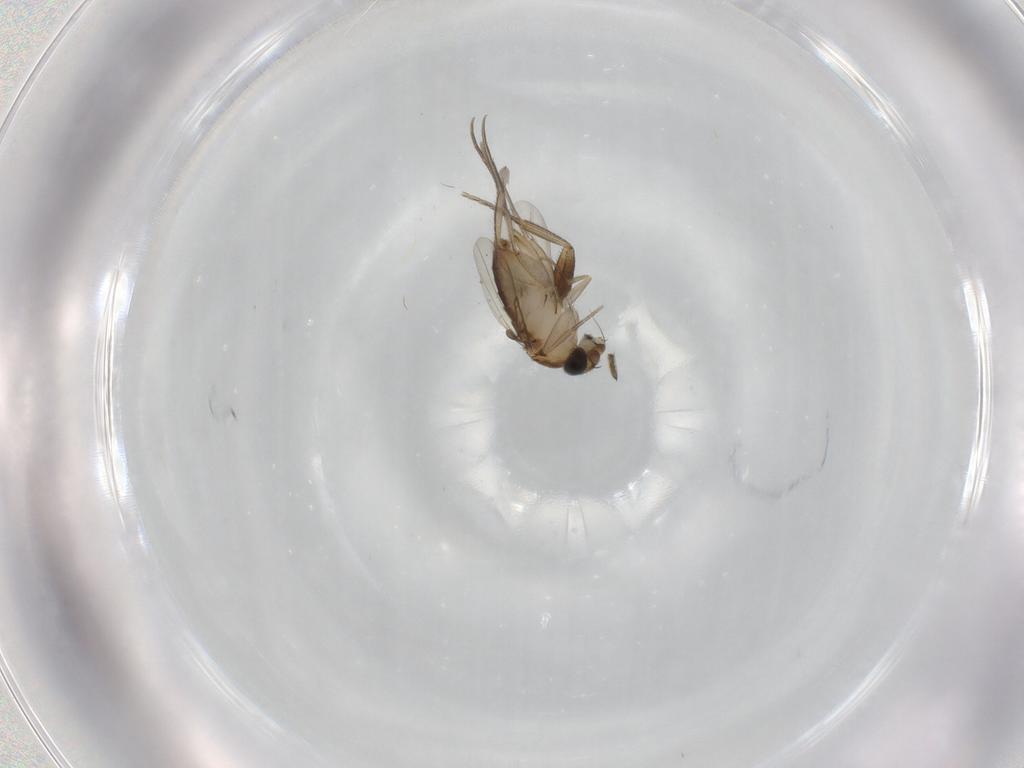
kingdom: Animalia
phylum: Arthropoda
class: Insecta
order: Diptera
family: Phoridae
